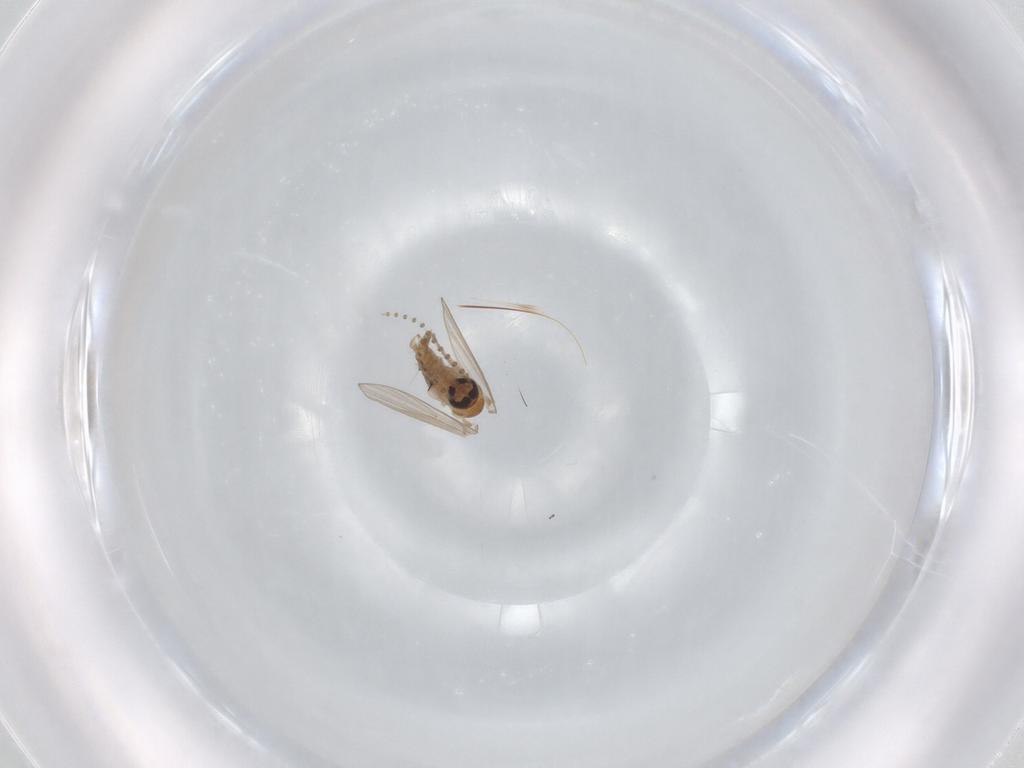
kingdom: Animalia
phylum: Arthropoda
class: Insecta
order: Diptera
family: Psychodidae
